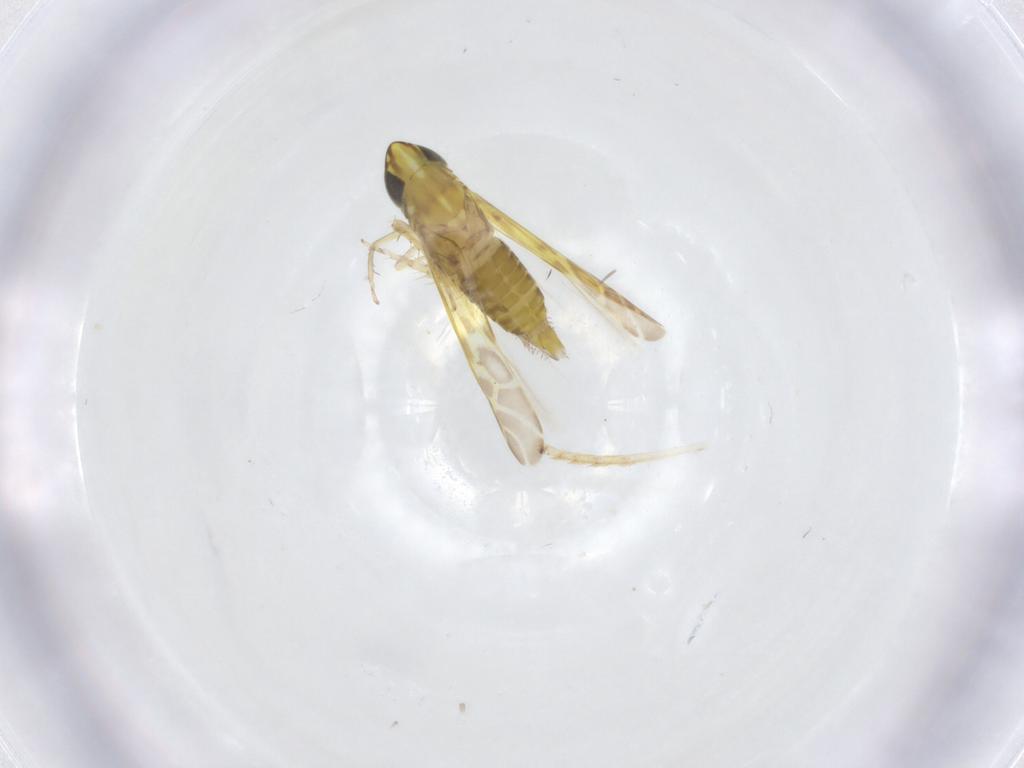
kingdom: Animalia
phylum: Arthropoda
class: Insecta
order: Hemiptera
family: Cicadellidae
